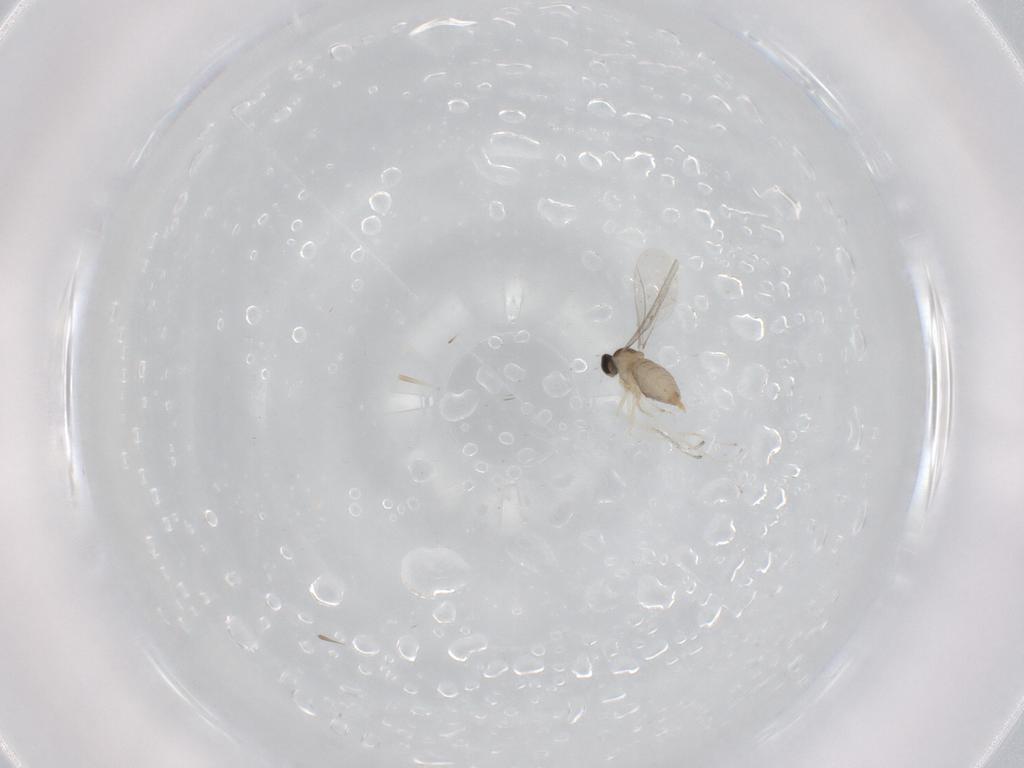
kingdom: Animalia
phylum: Arthropoda
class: Insecta
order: Diptera
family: Cecidomyiidae
